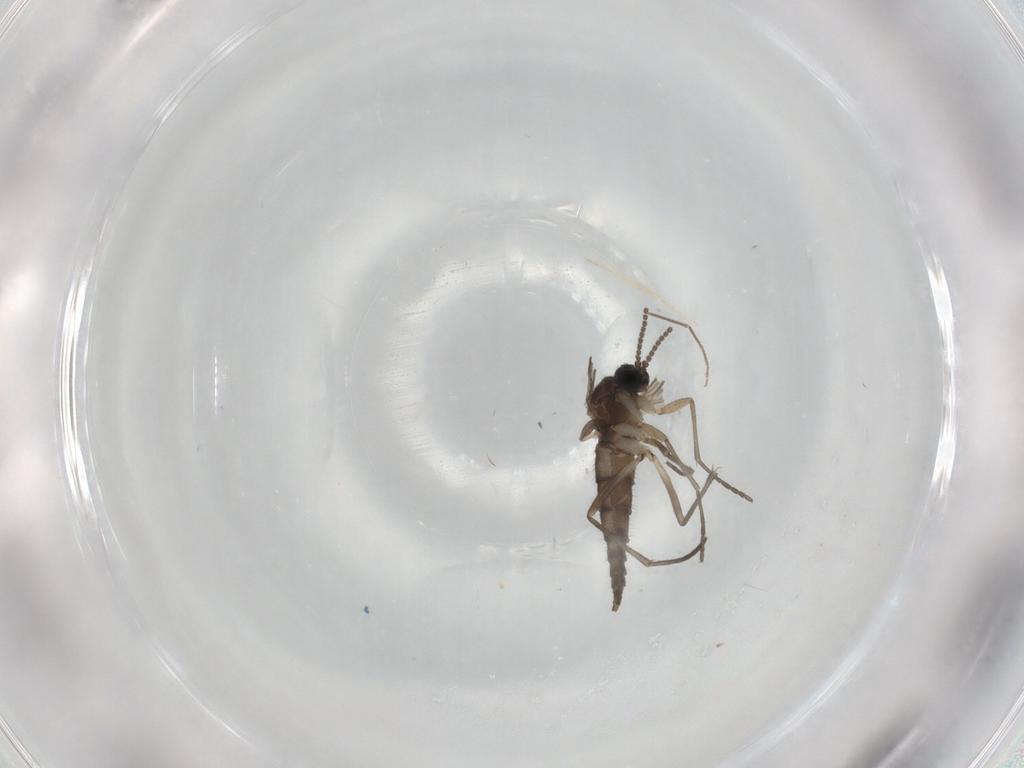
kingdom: Animalia
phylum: Arthropoda
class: Insecta
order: Diptera
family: Sciaridae
